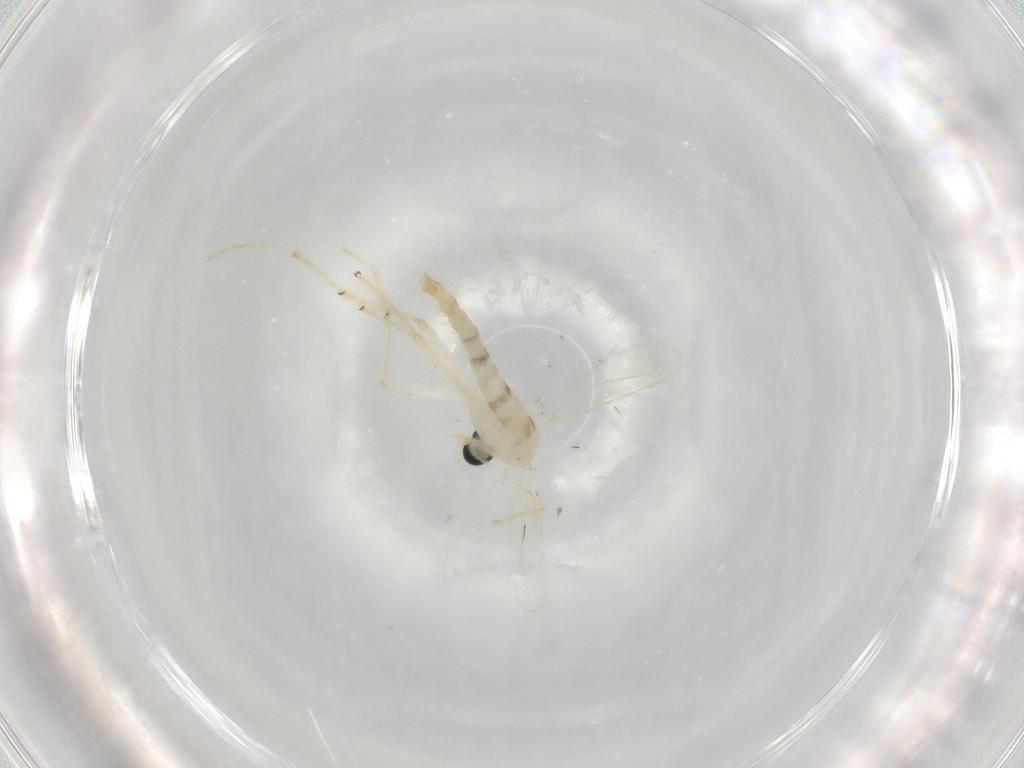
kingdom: Animalia
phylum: Arthropoda
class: Insecta
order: Diptera
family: Chironomidae
